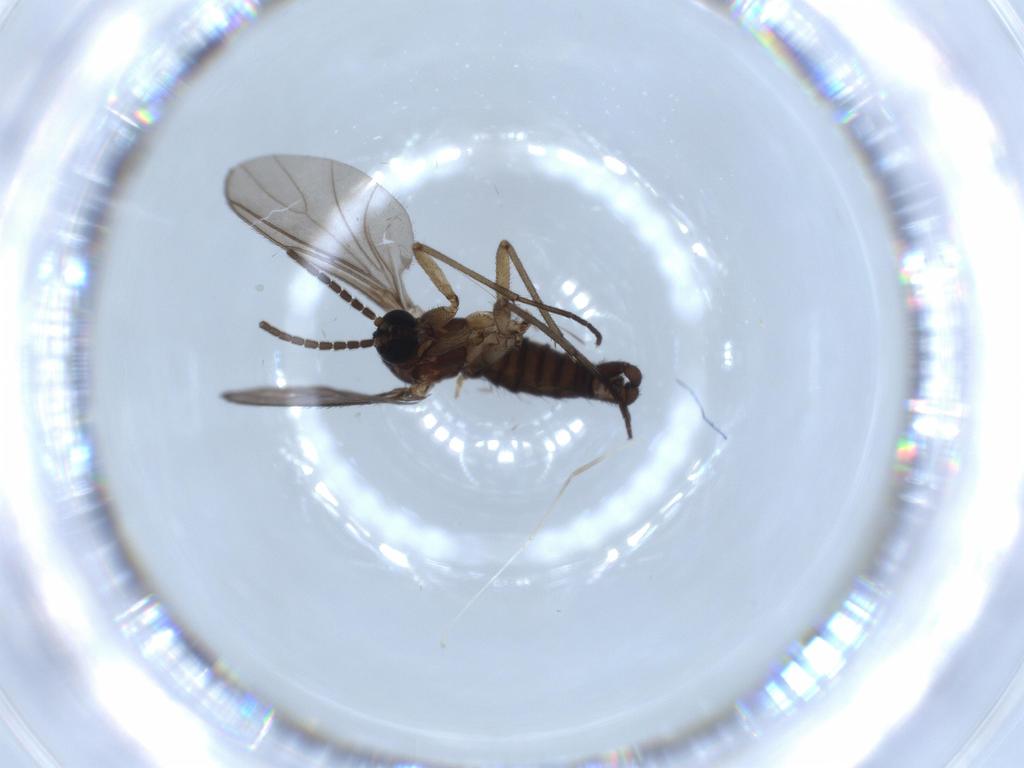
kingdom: Animalia
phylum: Arthropoda
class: Insecta
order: Diptera
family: Sciaridae
